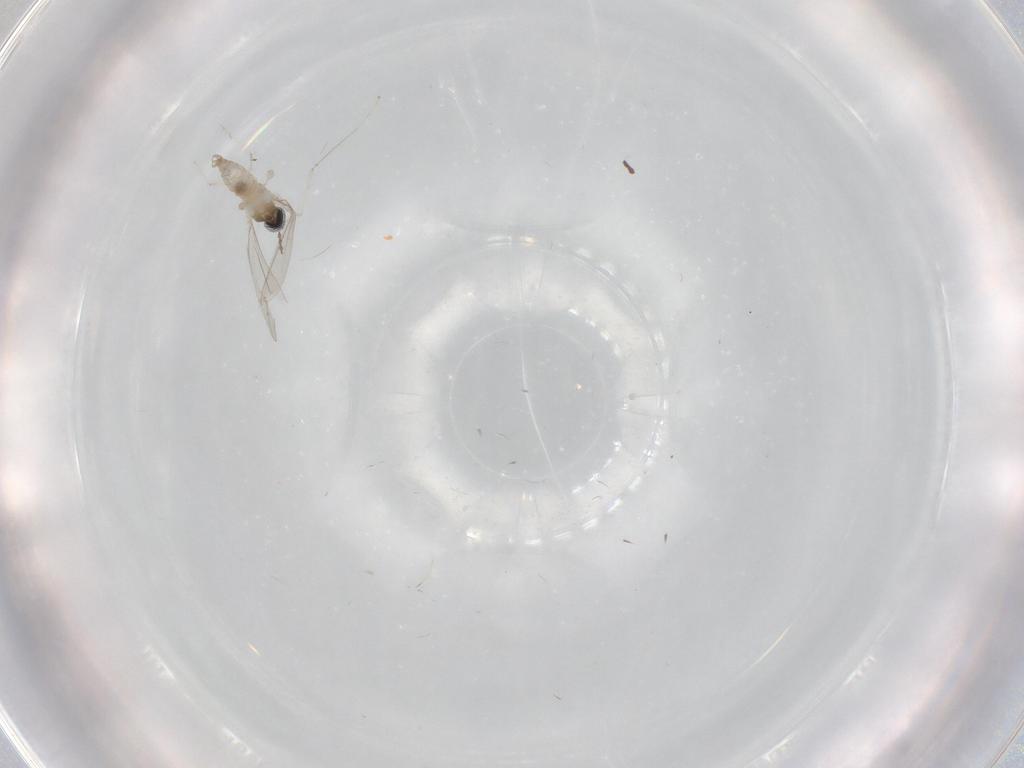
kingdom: Animalia
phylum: Arthropoda
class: Insecta
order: Diptera
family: Cecidomyiidae
